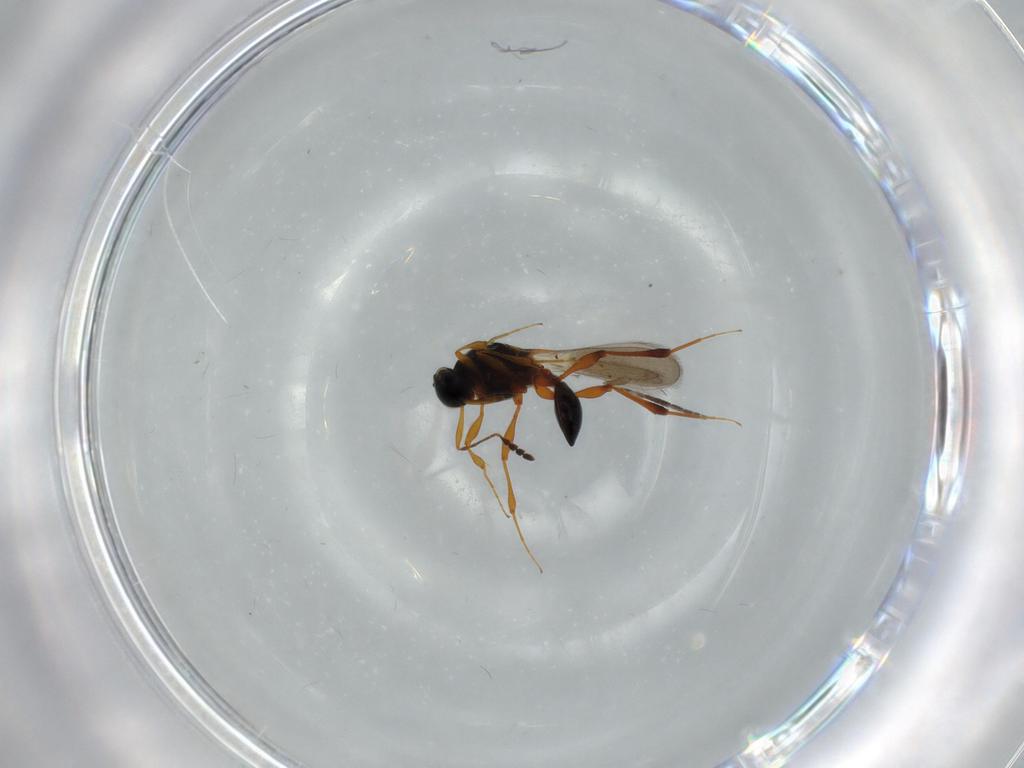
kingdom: Animalia
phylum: Arthropoda
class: Insecta
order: Hymenoptera
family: Platygastridae
